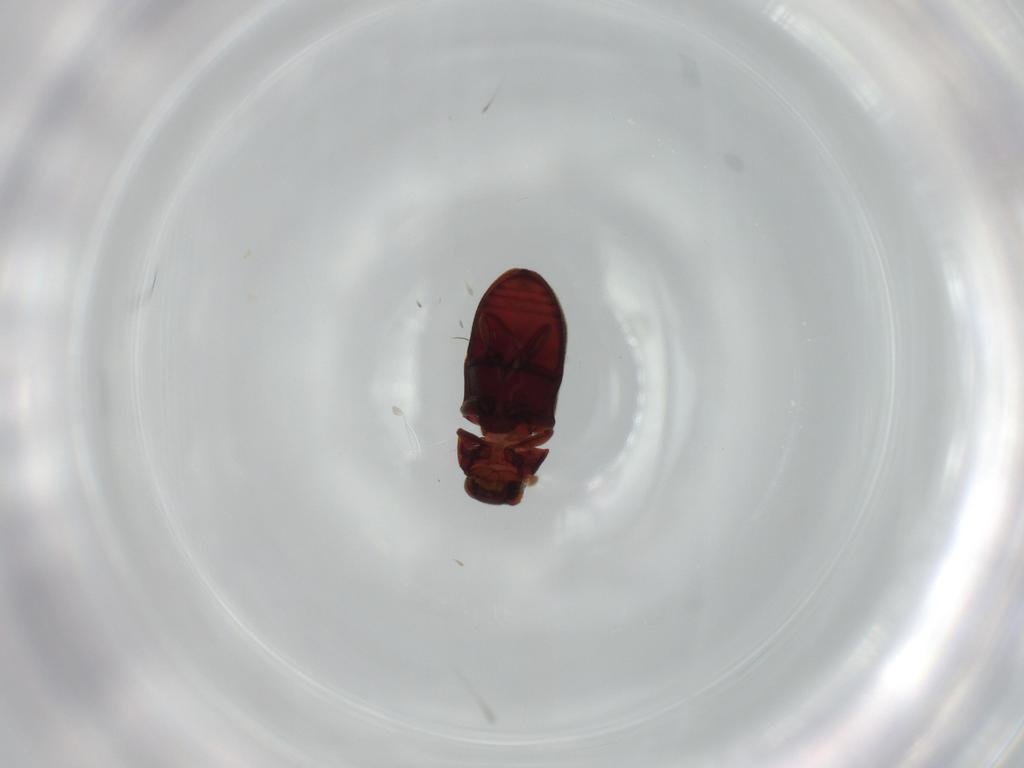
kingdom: Animalia
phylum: Arthropoda
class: Insecta
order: Coleoptera
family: Ptinidae
